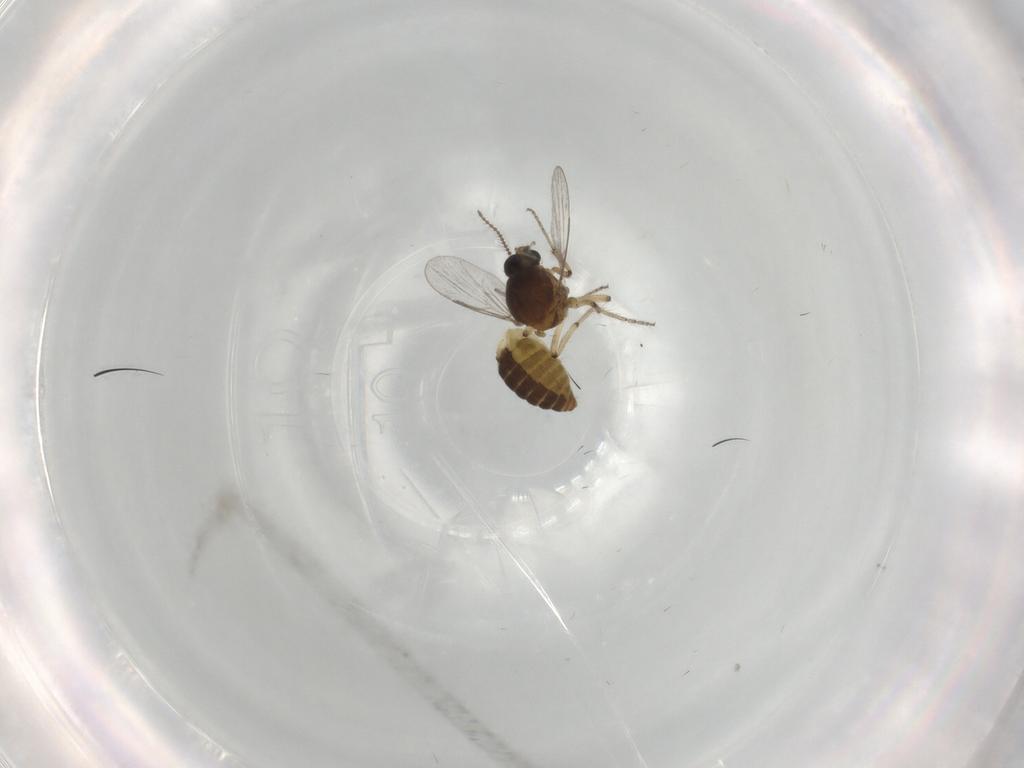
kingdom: Animalia
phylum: Arthropoda
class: Insecta
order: Diptera
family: Ceratopogonidae
